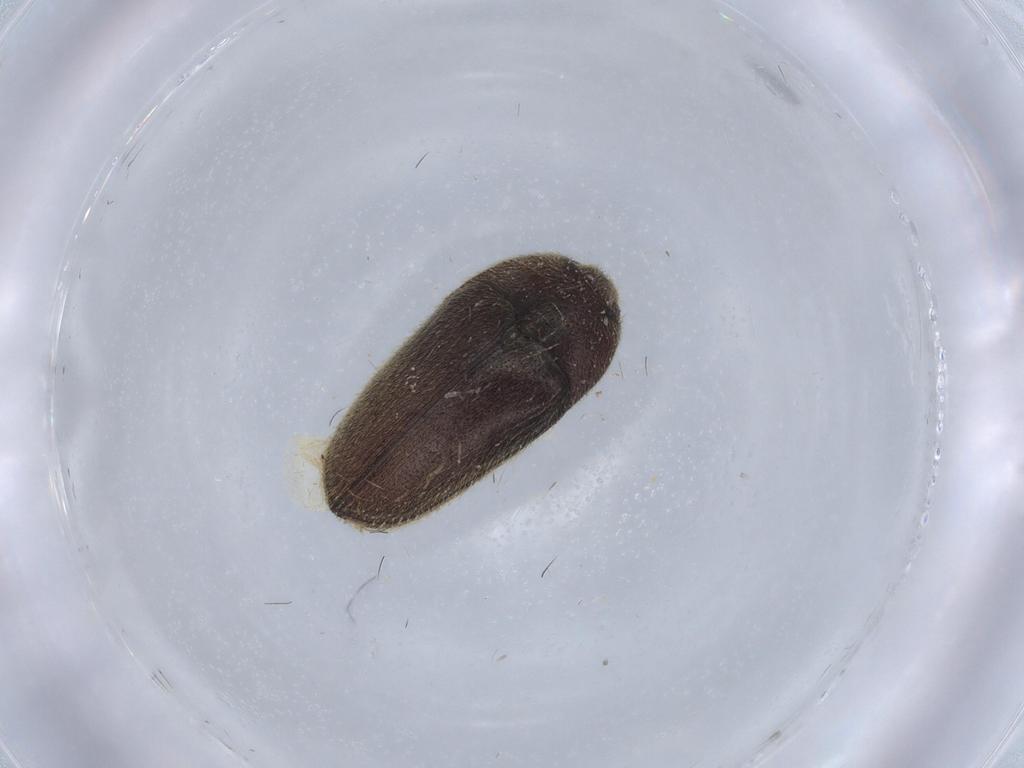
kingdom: Animalia
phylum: Arthropoda
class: Insecta
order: Coleoptera
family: Throscidae
